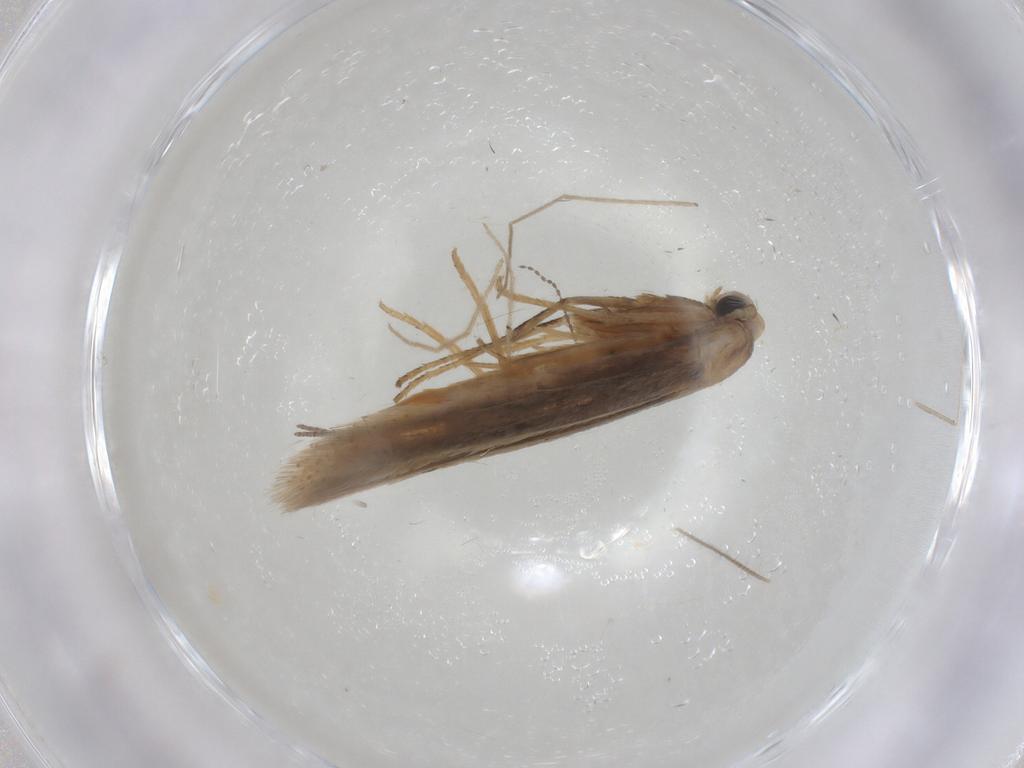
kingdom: Animalia
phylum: Arthropoda
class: Insecta
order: Lepidoptera
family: Bedelliidae
